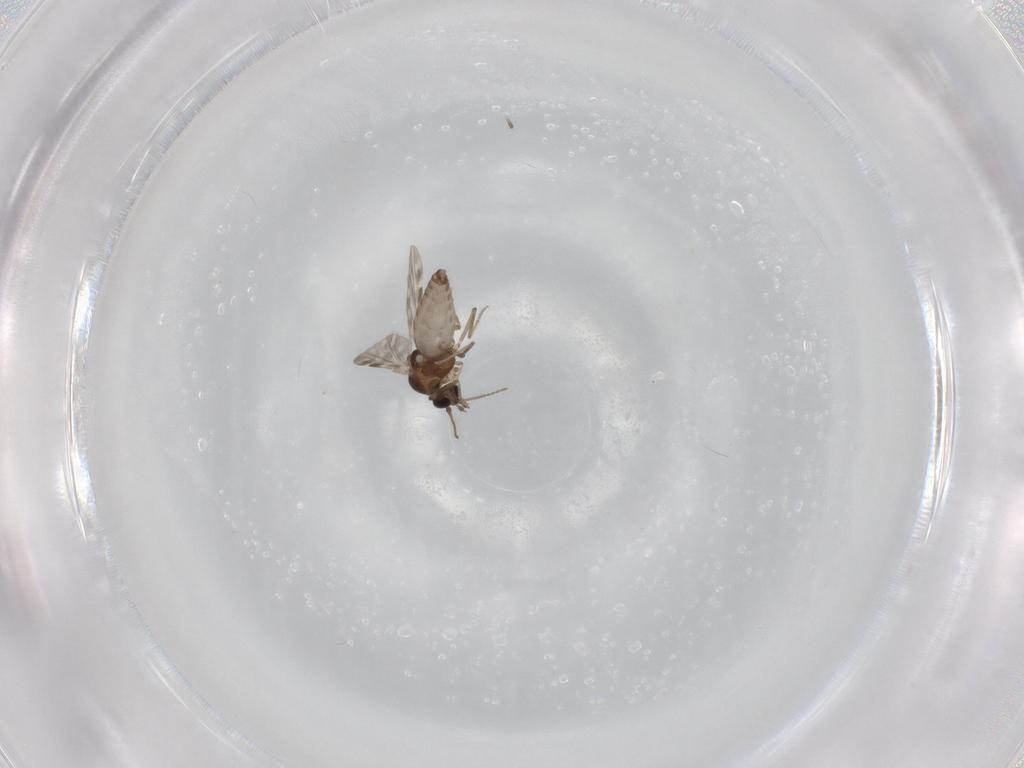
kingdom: Animalia
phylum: Arthropoda
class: Insecta
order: Diptera
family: Ceratopogonidae
